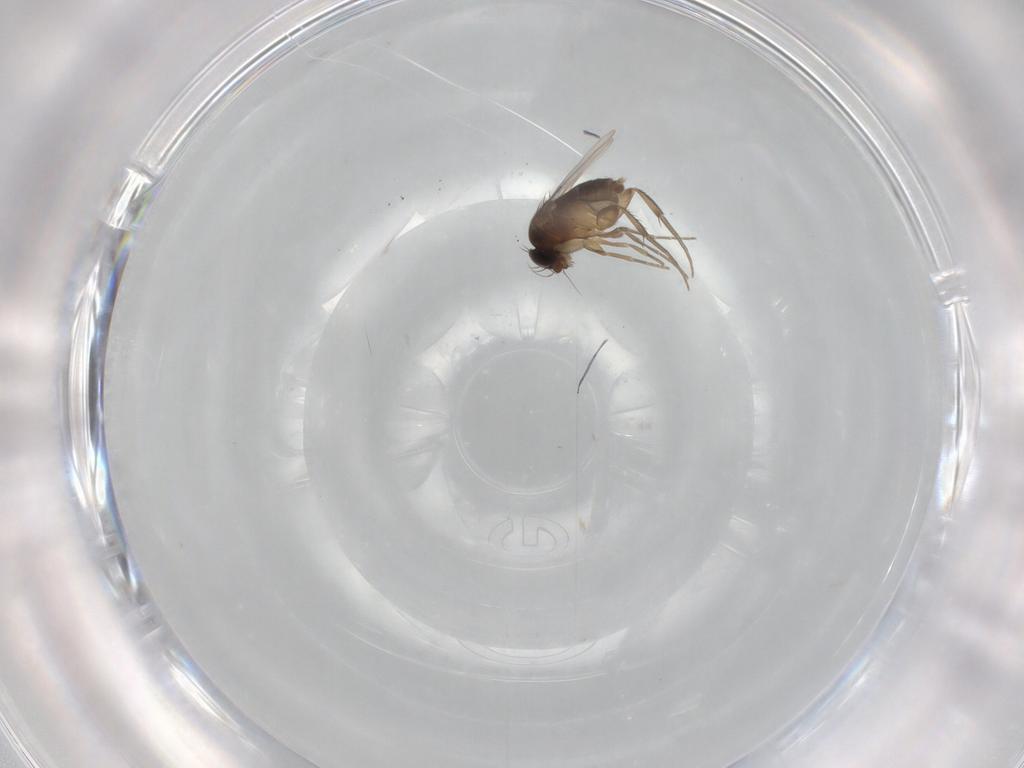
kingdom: Animalia
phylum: Arthropoda
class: Insecta
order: Diptera
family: Phoridae
